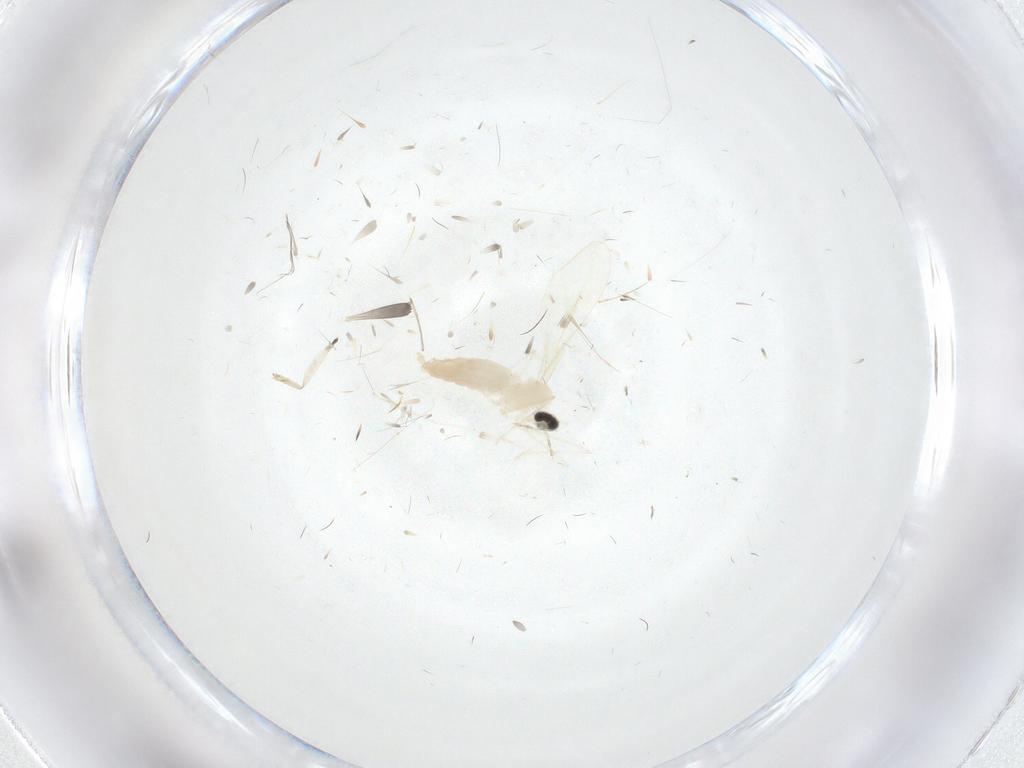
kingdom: Animalia
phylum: Arthropoda
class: Insecta
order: Diptera
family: Cecidomyiidae
